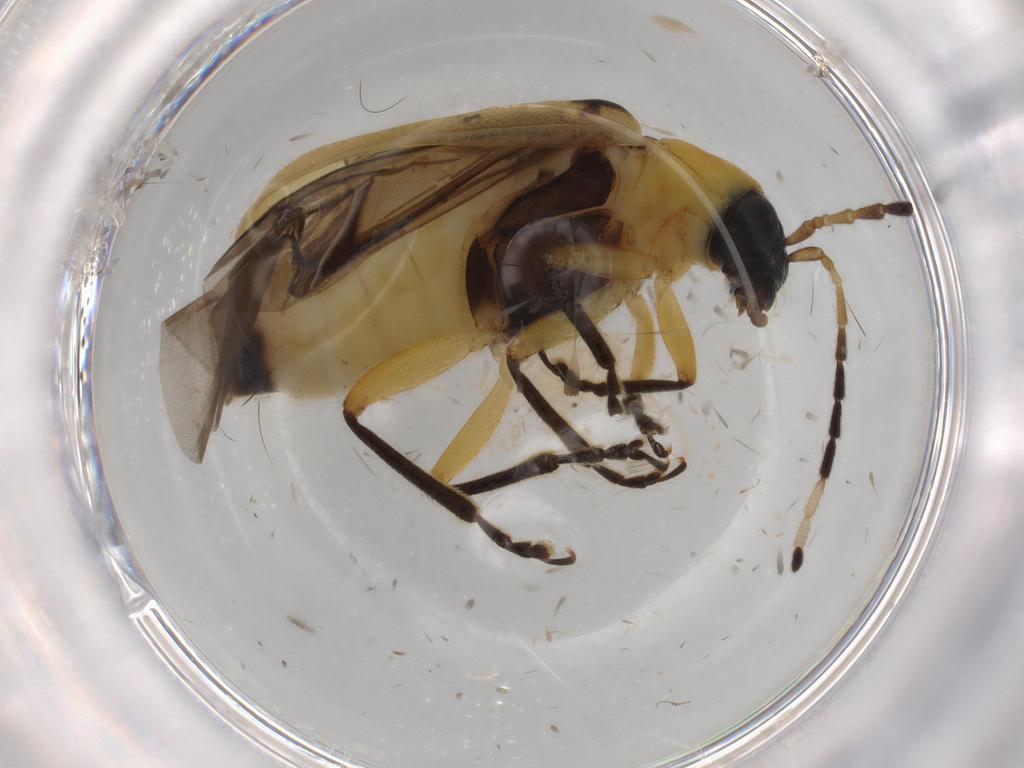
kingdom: Animalia
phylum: Arthropoda
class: Insecta
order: Coleoptera
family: Chrysomelidae
